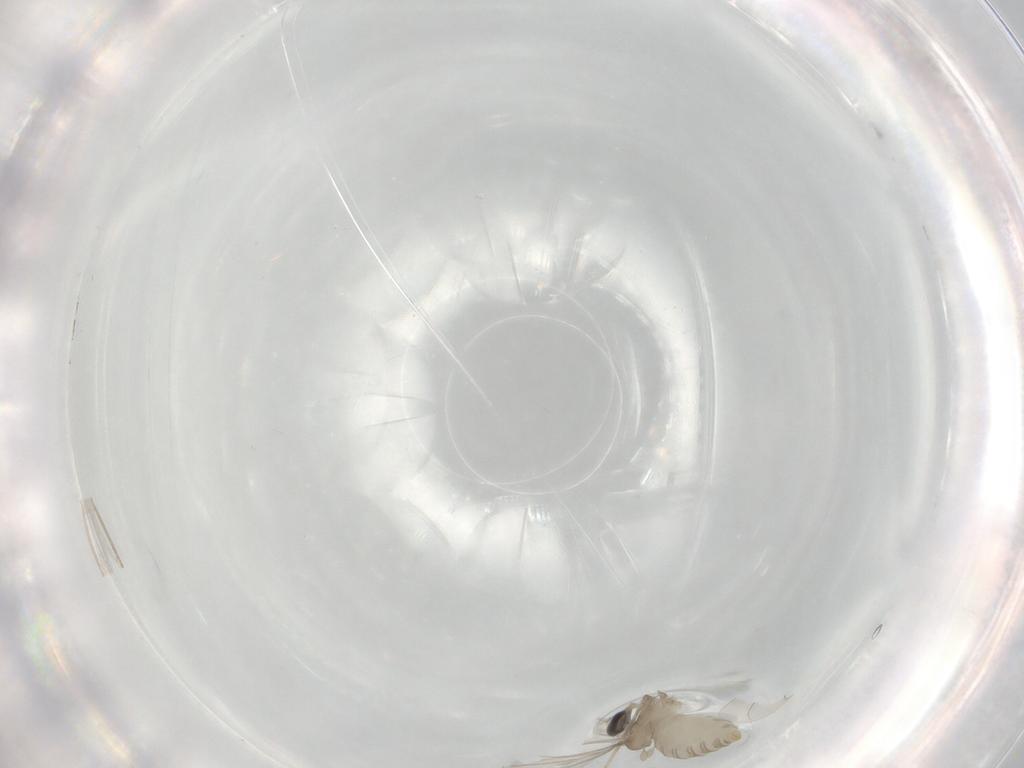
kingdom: Animalia
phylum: Arthropoda
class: Insecta
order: Diptera
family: Cecidomyiidae
